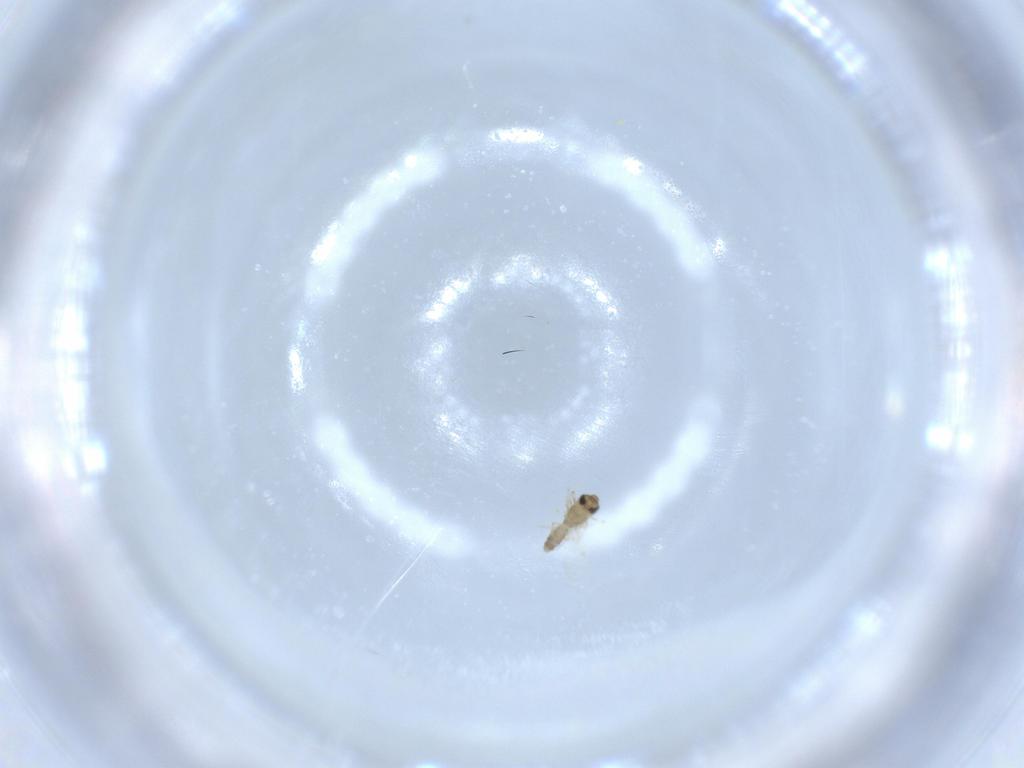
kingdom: Animalia
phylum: Arthropoda
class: Insecta
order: Diptera
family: Chironomidae
